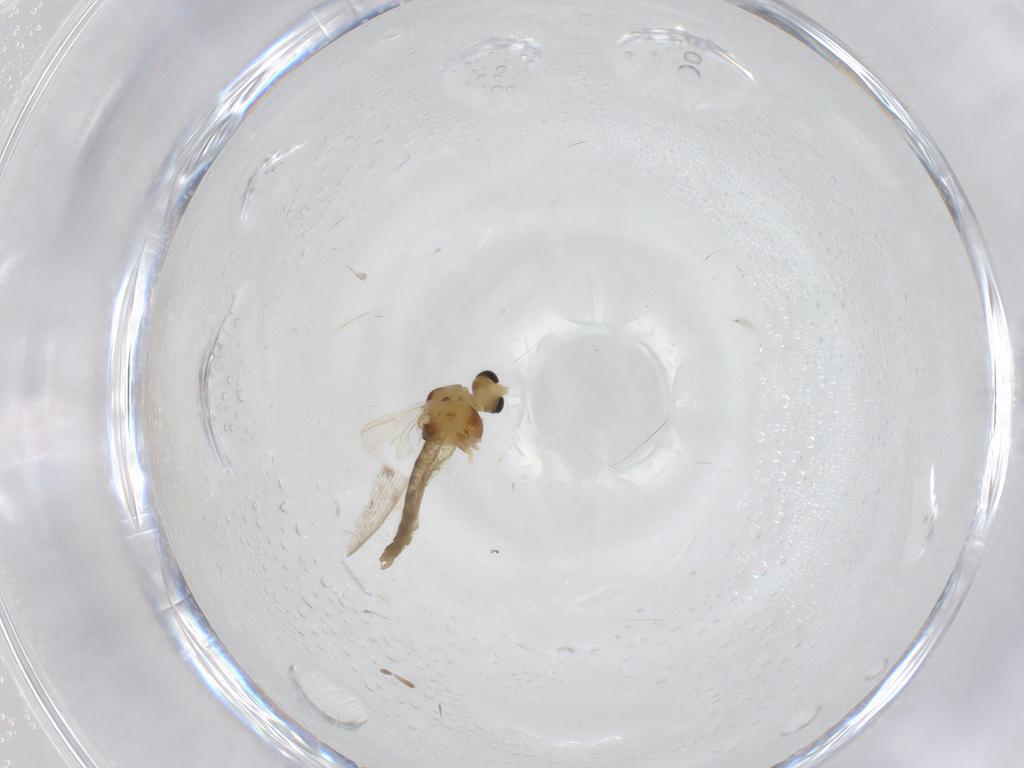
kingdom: Animalia
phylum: Arthropoda
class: Insecta
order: Diptera
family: Chironomidae
